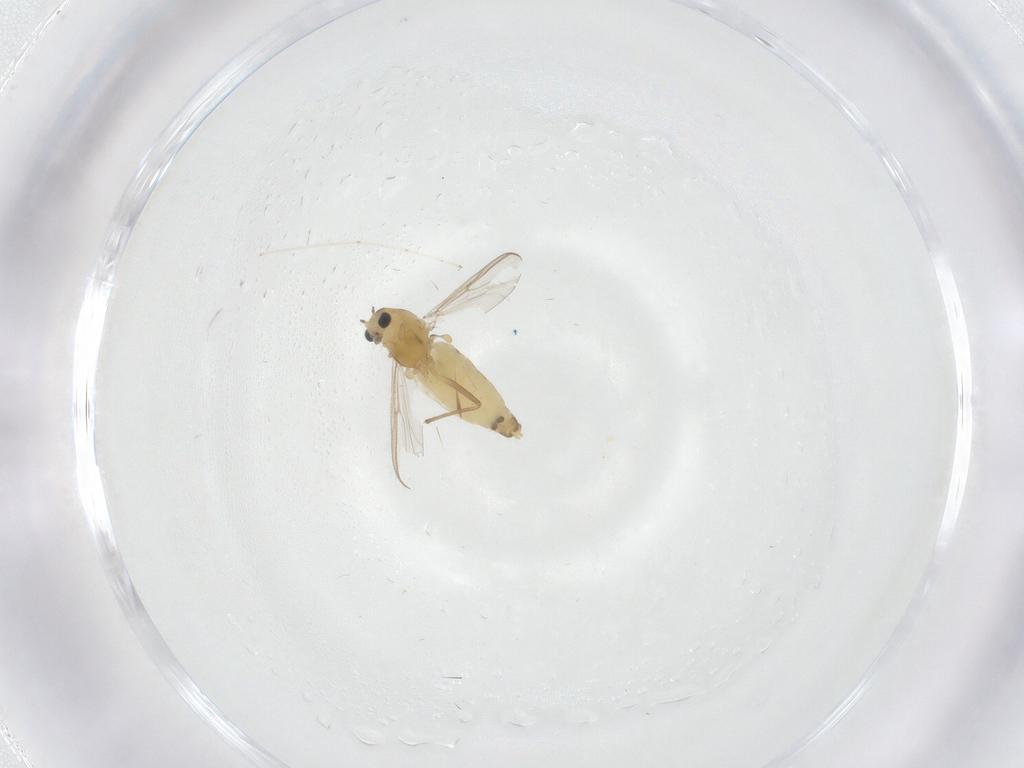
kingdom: Animalia
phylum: Arthropoda
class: Insecta
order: Diptera
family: Chironomidae
